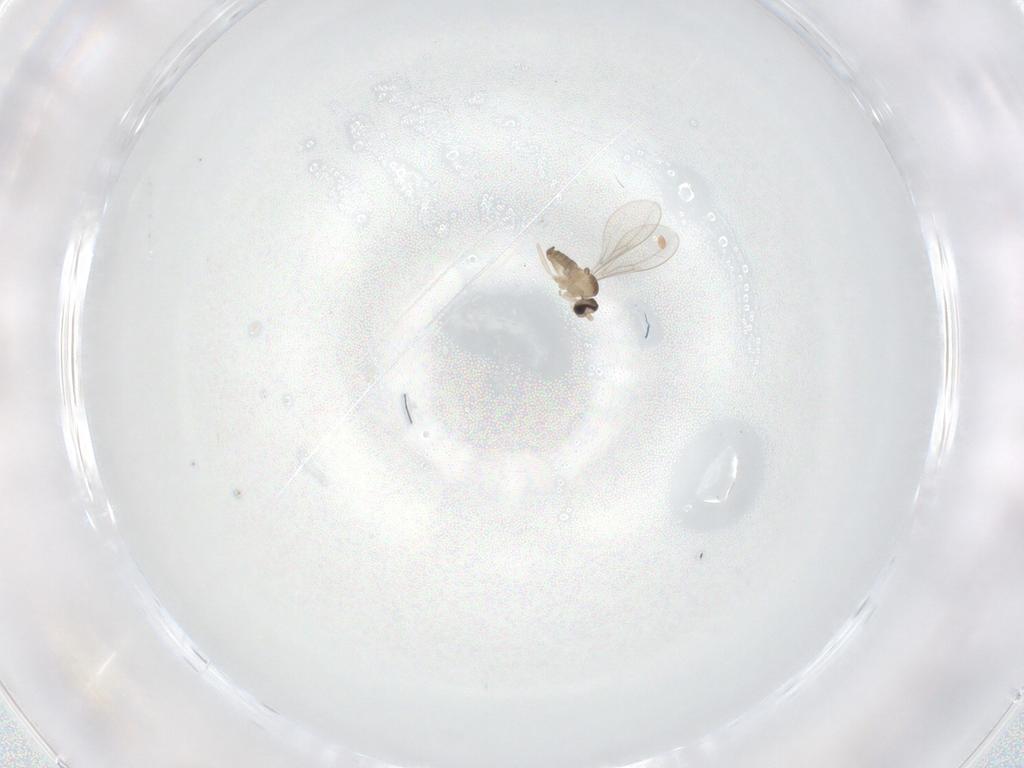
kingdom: Animalia
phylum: Arthropoda
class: Insecta
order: Diptera
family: Cecidomyiidae
